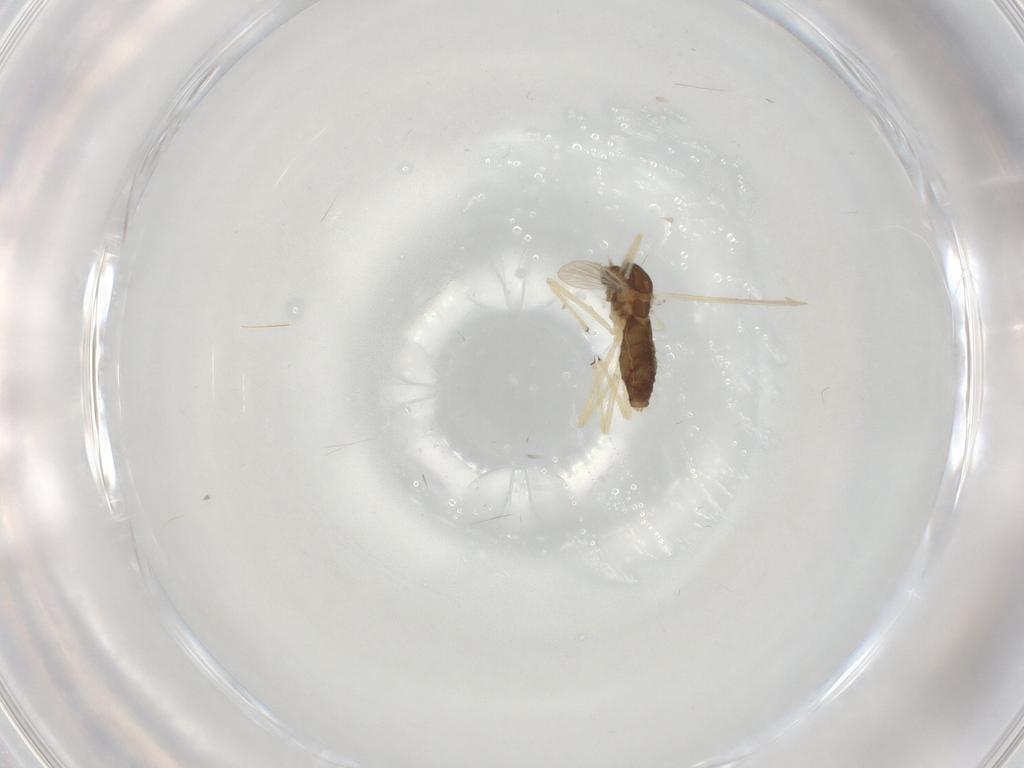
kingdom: Animalia
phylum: Arthropoda
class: Insecta
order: Diptera
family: Chironomidae
